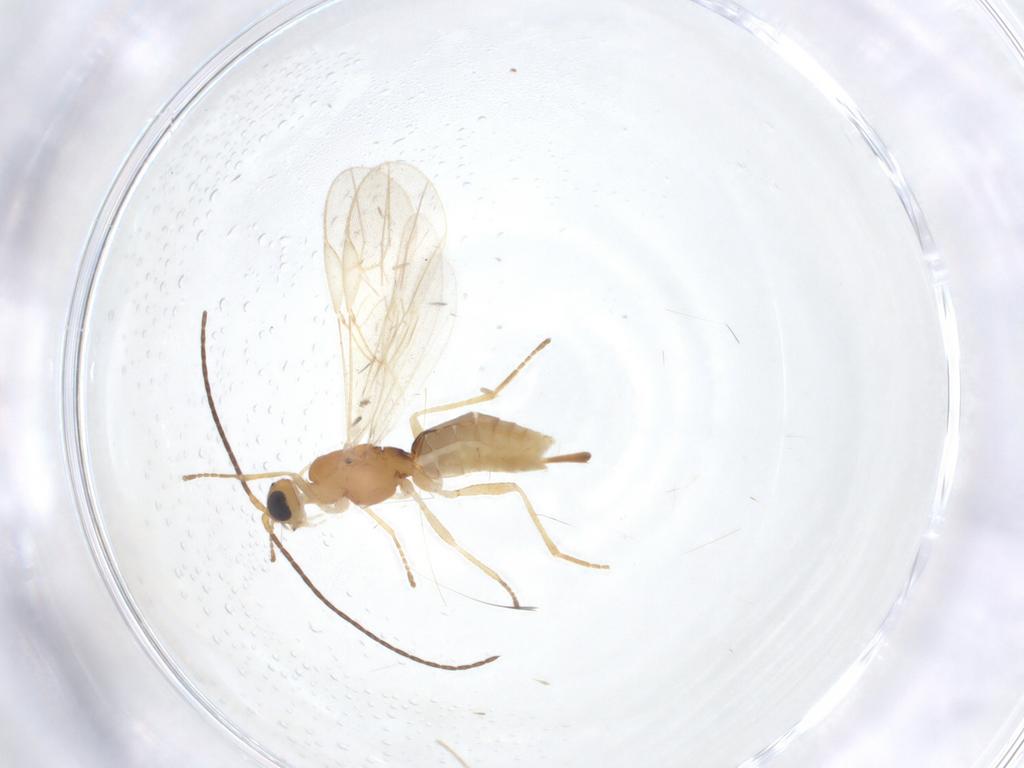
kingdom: Animalia
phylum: Arthropoda
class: Insecta
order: Hymenoptera
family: Braconidae
